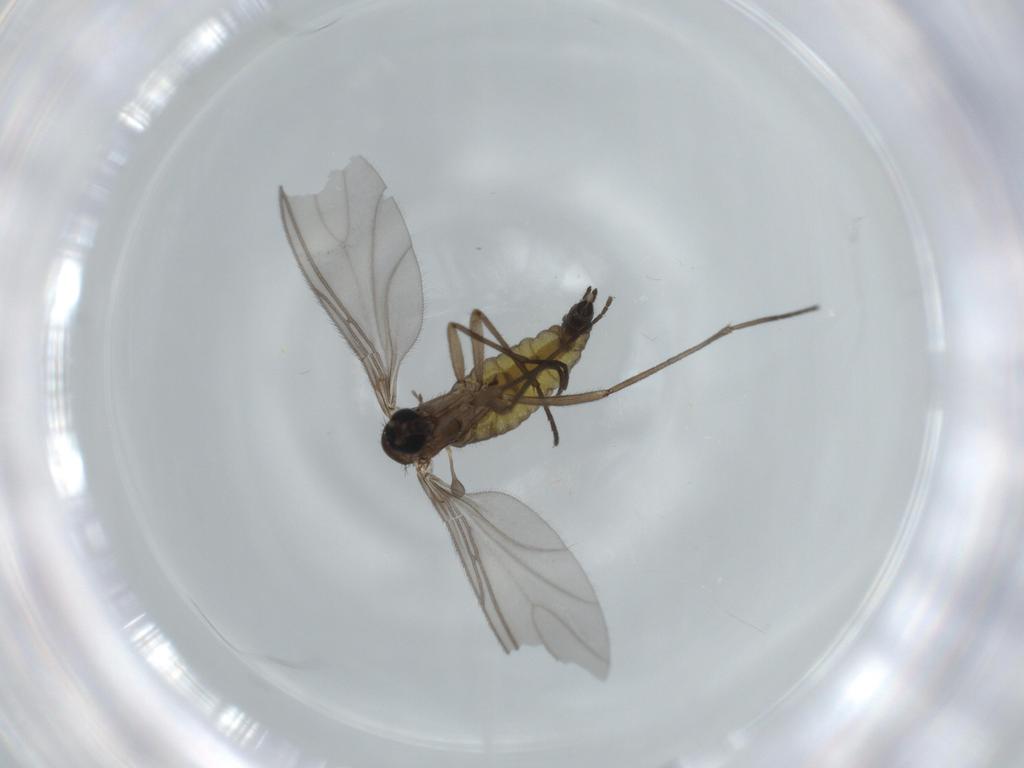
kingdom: Animalia
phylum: Arthropoda
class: Insecta
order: Diptera
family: Sciaridae
